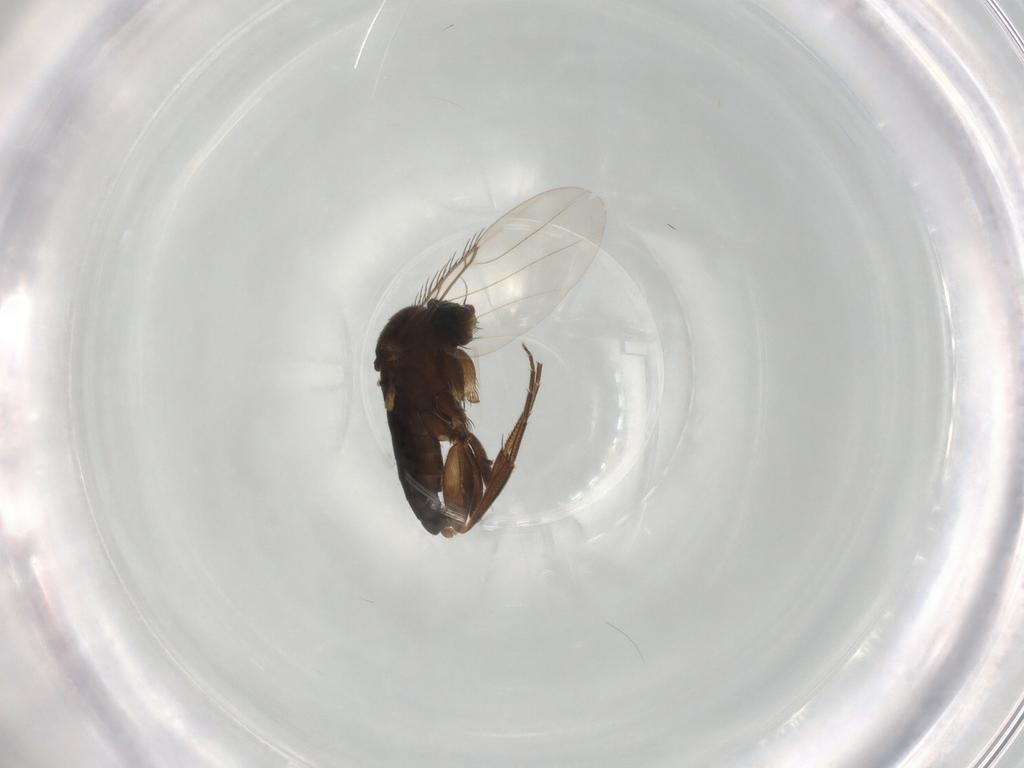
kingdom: Animalia
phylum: Arthropoda
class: Insecta
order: Diptera
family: Phoridae
